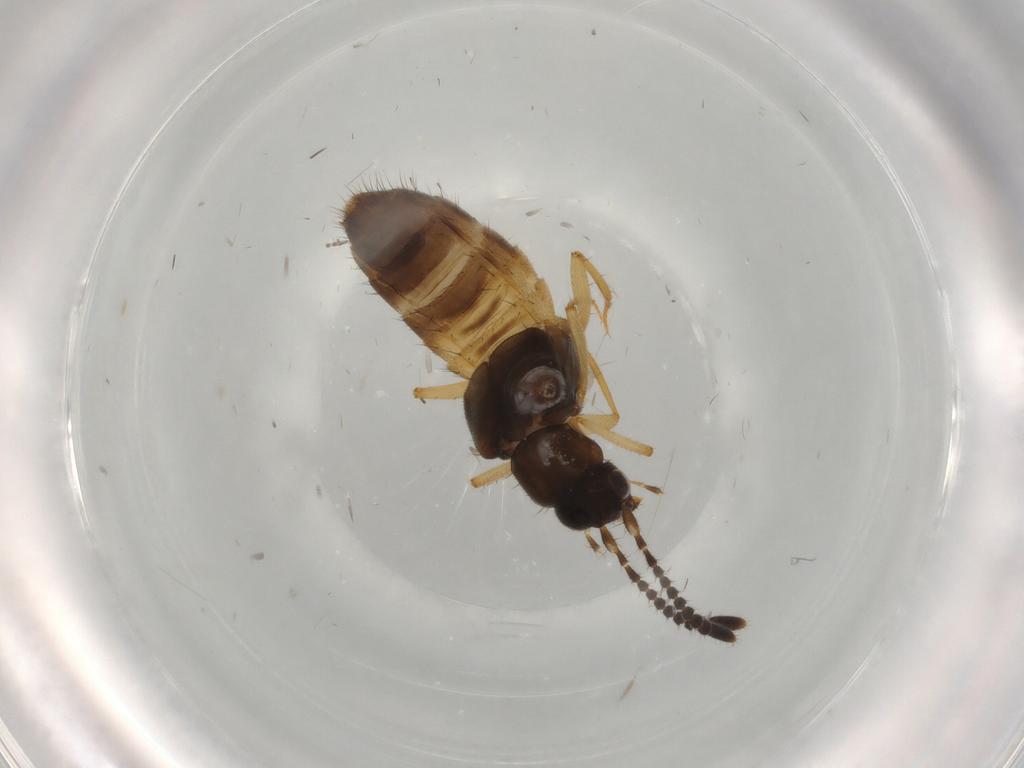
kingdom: Animalia
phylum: Arthropoda
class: Insecta
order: Coleoptera
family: Staphylinidae
